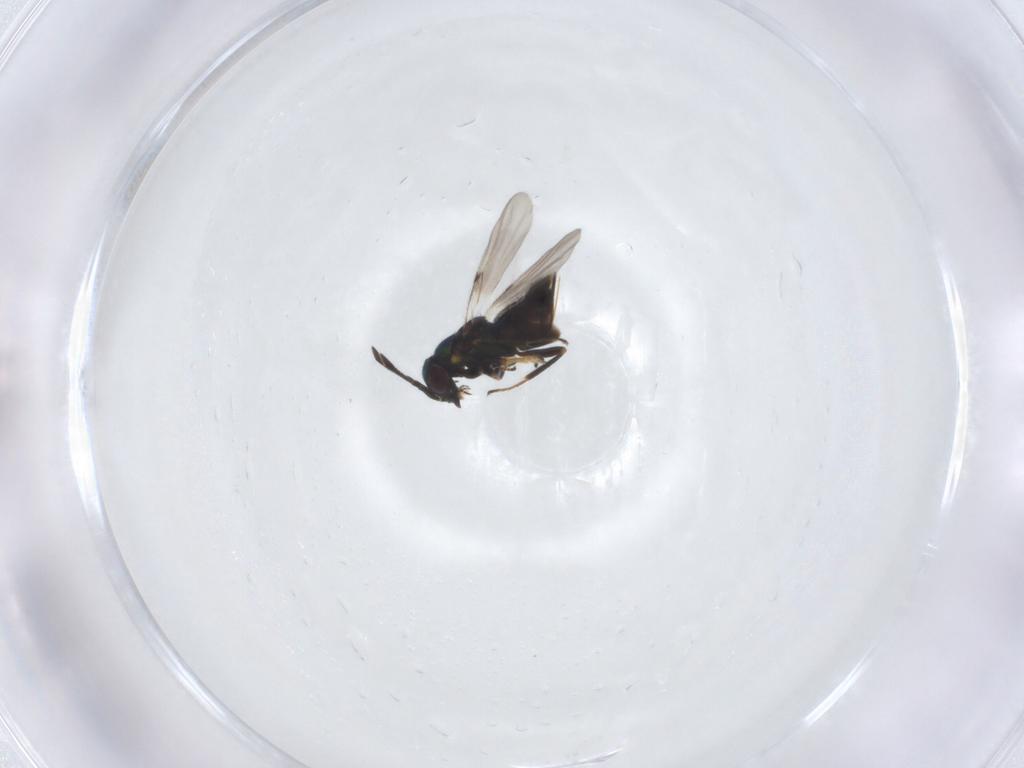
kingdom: Animalia
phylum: Arthropoda
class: Insecta
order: Hymenoptera
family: Encyrtidae
